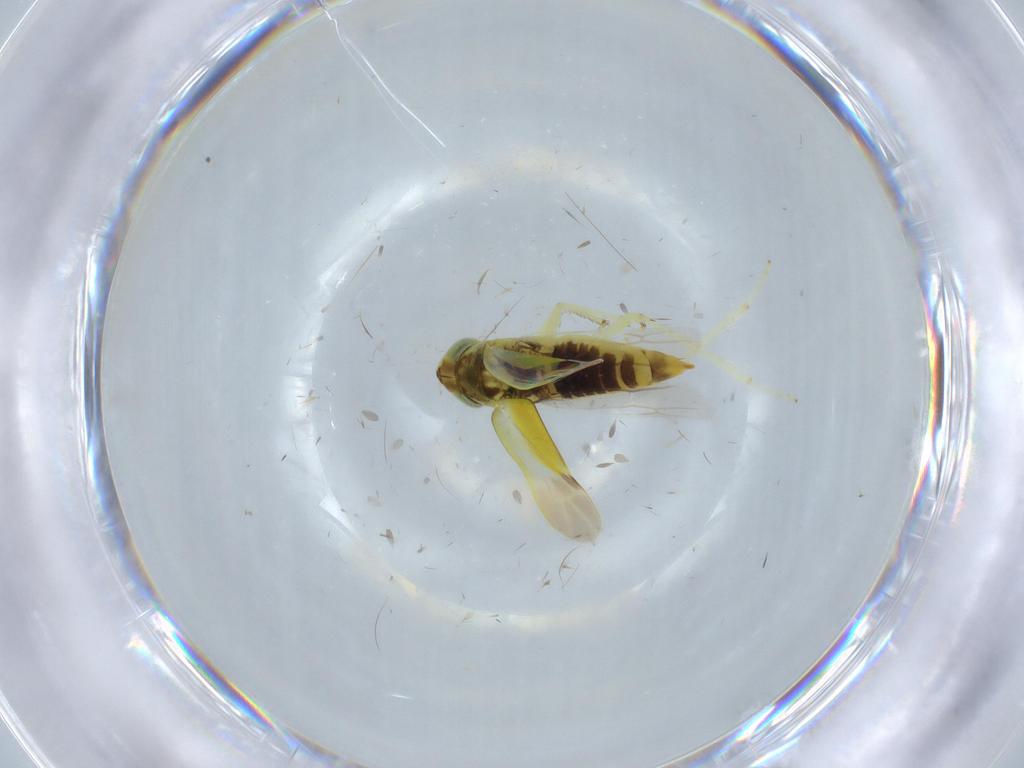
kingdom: Animalia
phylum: Arthropoda
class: Insecta
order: Hemiptera
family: Cicadellidae
